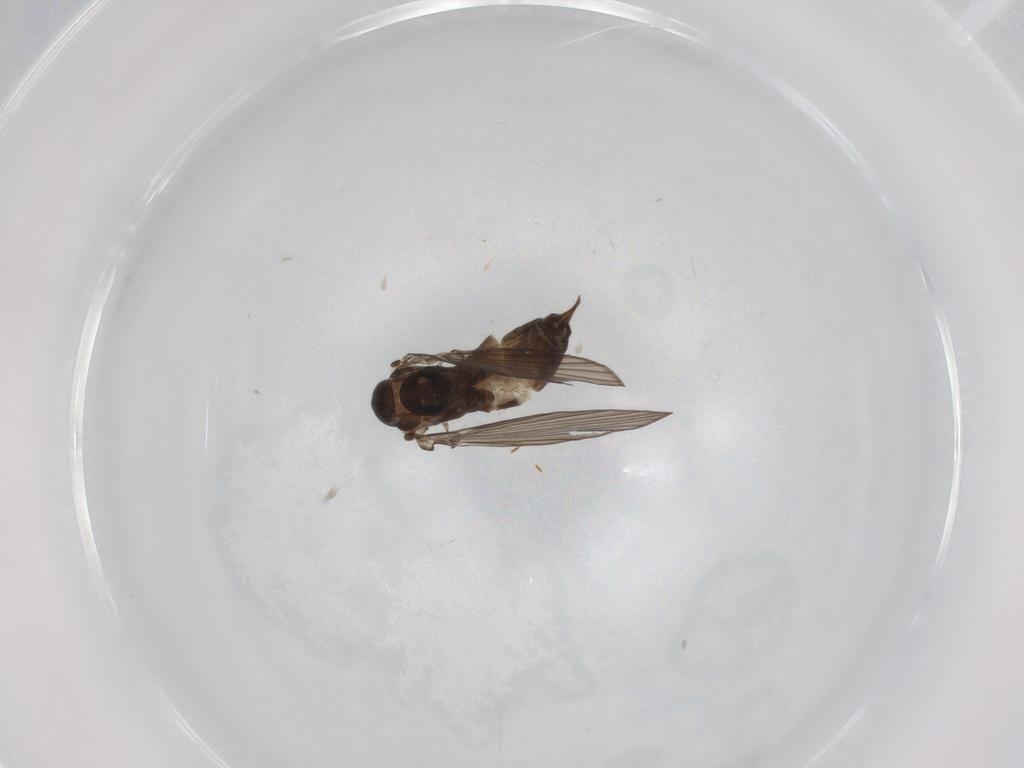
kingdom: Animalia
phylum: Arthropoda
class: Insecta
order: Diptera
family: Psychodidae
